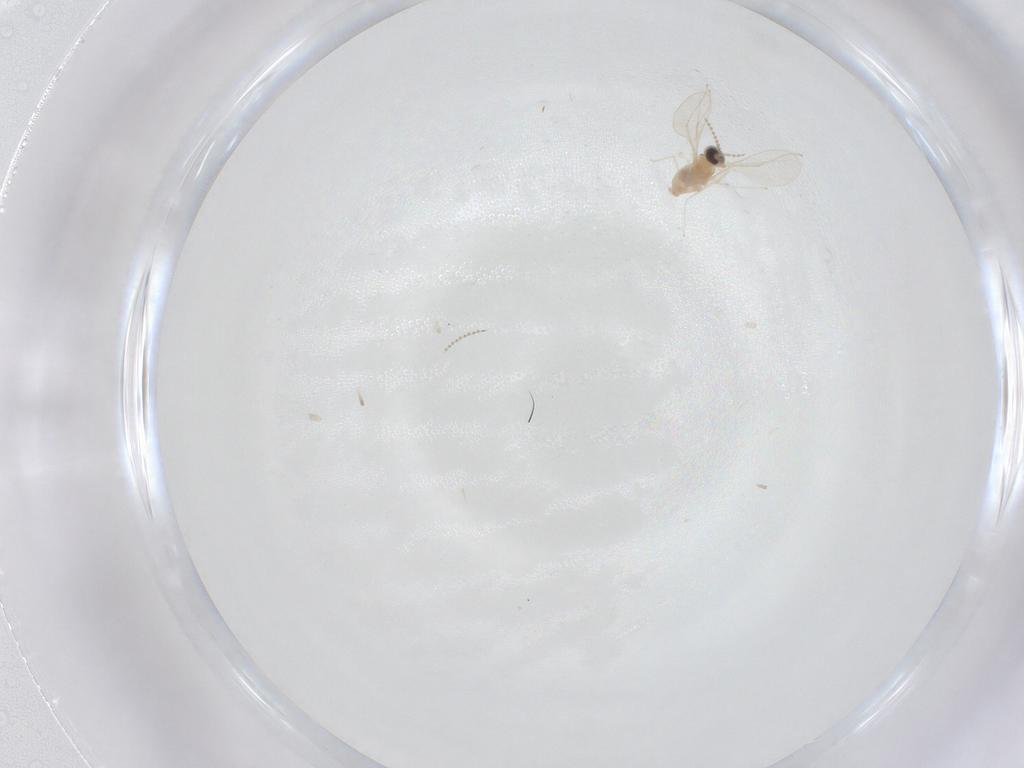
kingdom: Animalia
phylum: Arthropoda
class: Insecta
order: Diptera
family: Cecidomyiidae
